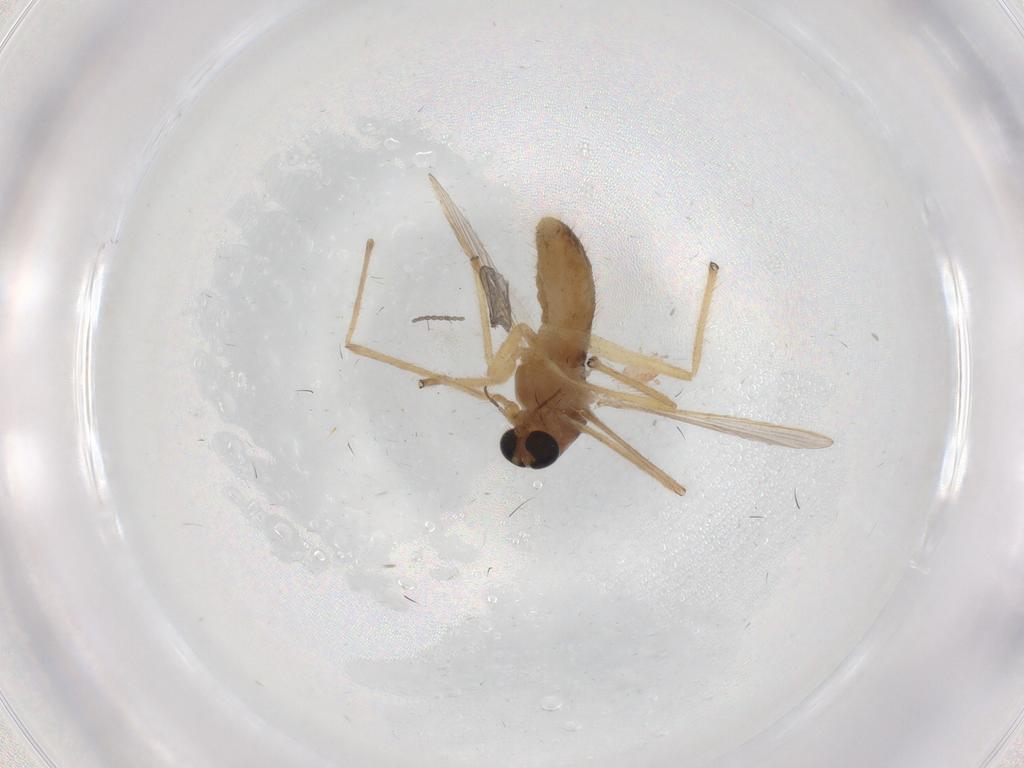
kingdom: Animalia
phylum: Arthropoda
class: Insecta
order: Diptera
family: Chironomidae
